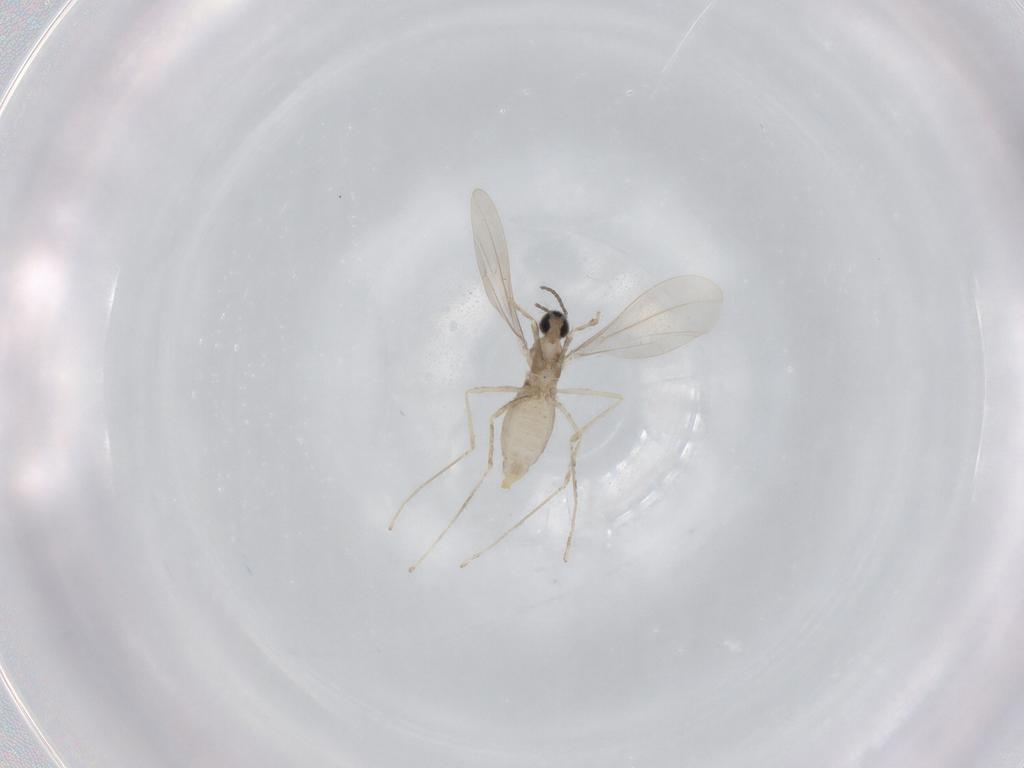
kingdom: Animalia
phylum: Arthropoda
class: Insecta
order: Diptera
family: Cecidomyiidae
